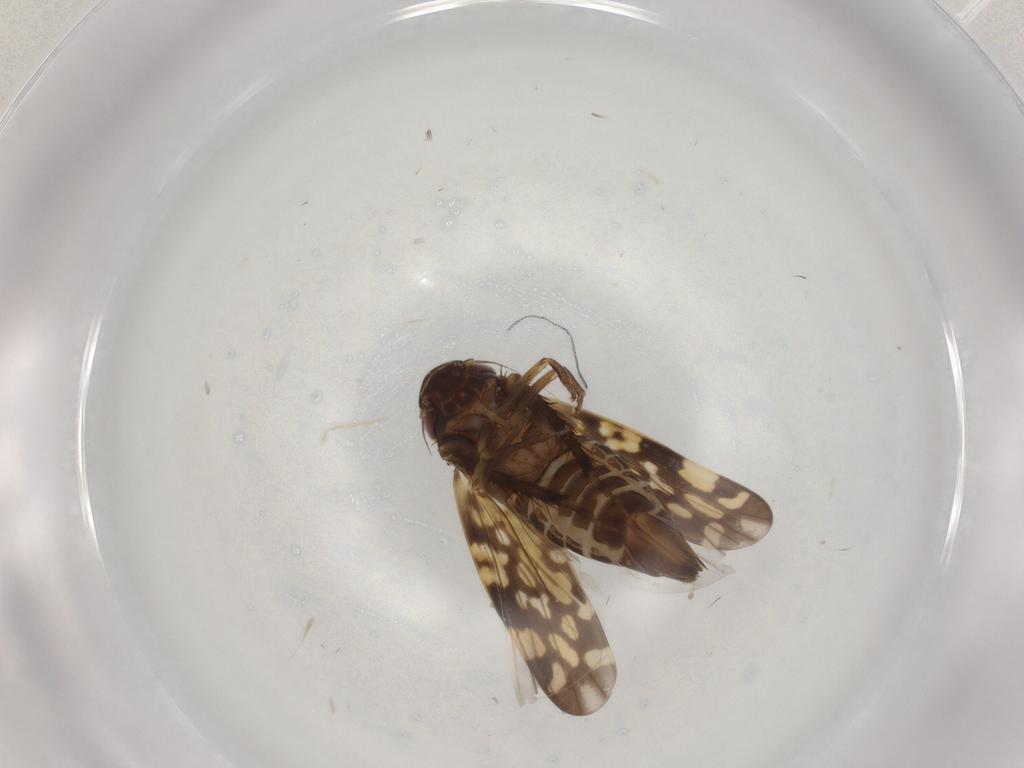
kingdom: Animalia
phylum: Arthropoda
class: Insecta
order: Hemiptera
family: Cicadellidae
